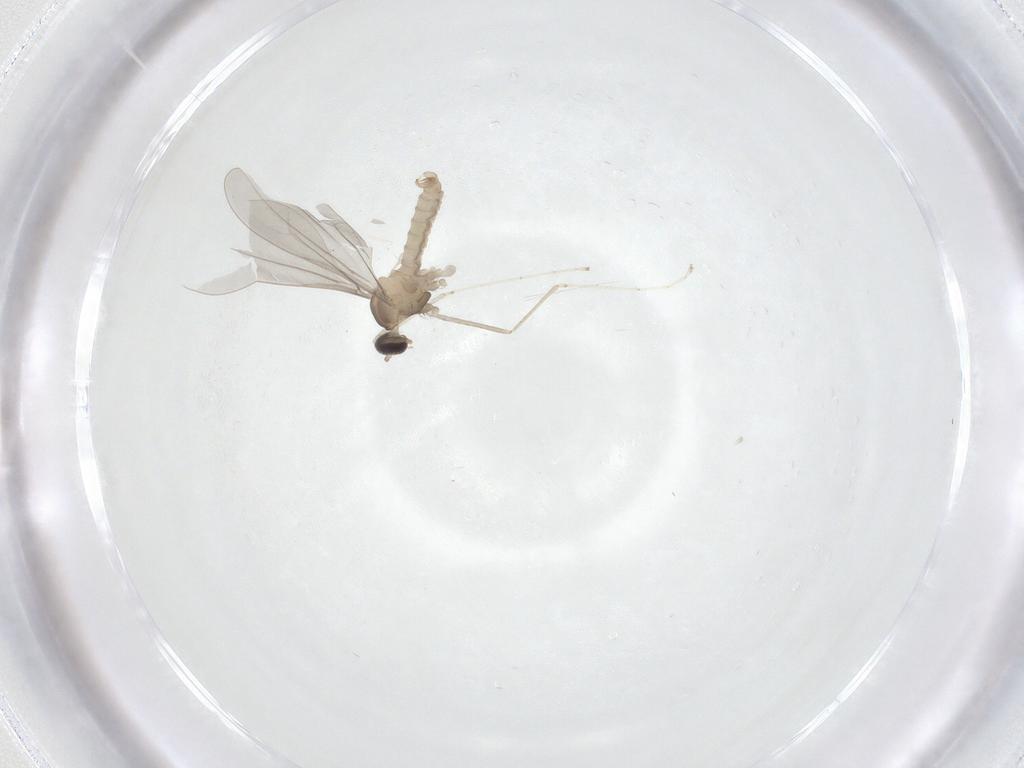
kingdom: Animalia
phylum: Arthropoda
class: Insecta
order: Diptera
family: Cecidomyiidae
